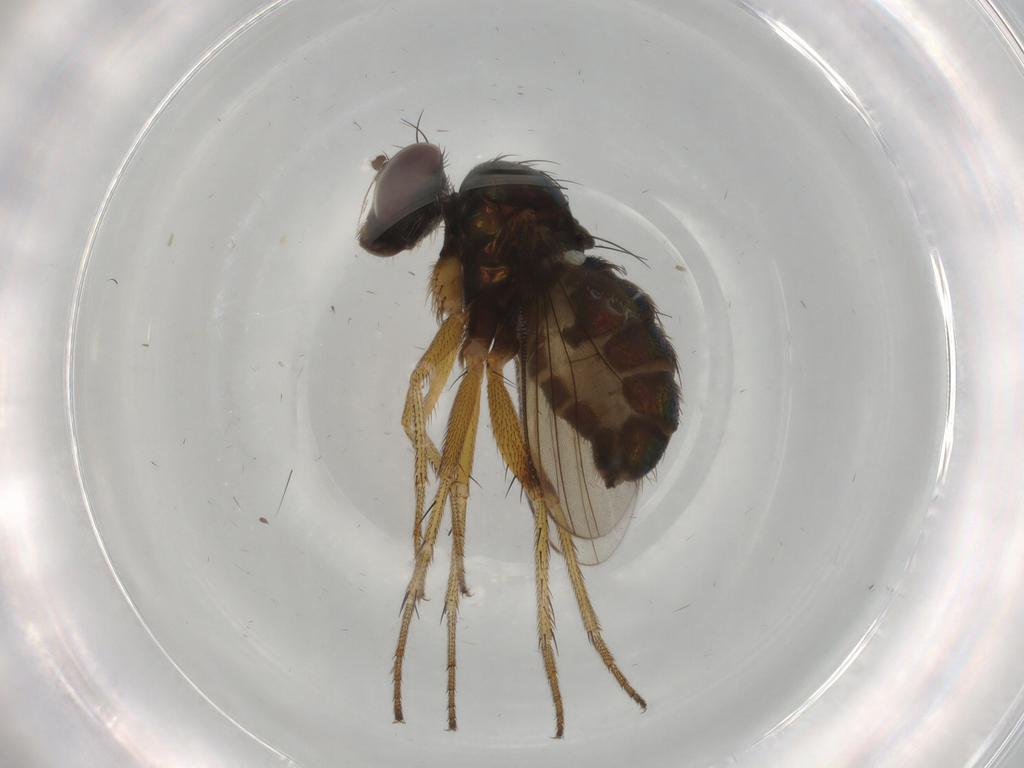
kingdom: Animalia
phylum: Arthropoda
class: Insecta
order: Diptera
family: Dolichopodidae
